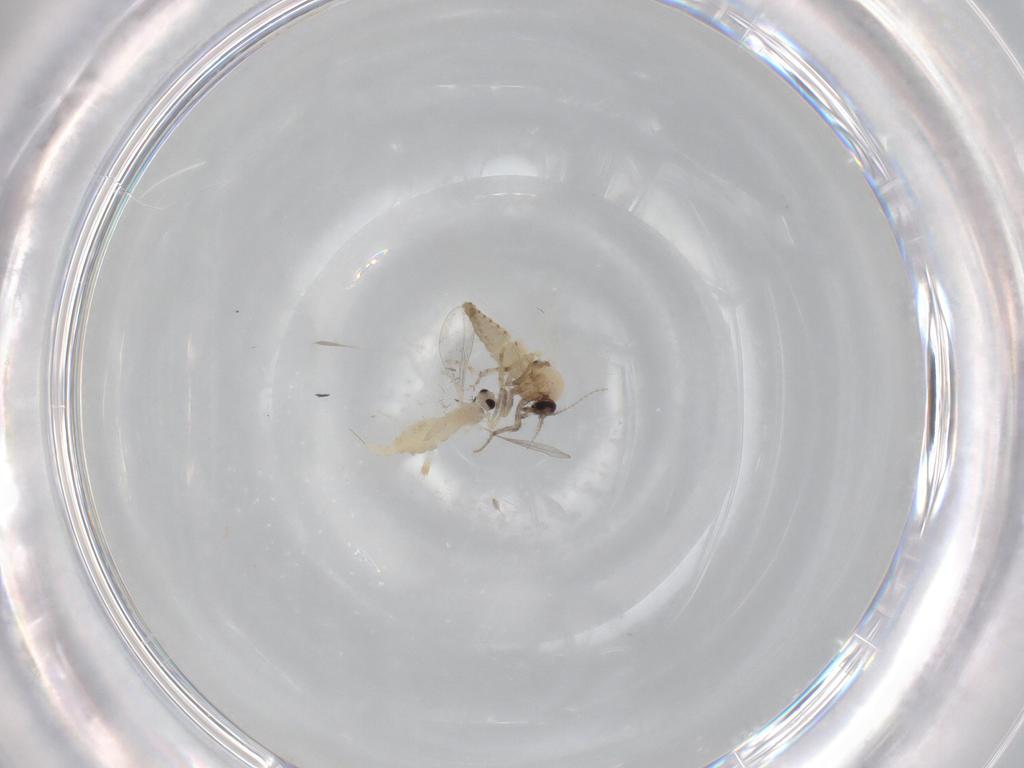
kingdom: Animalia
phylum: Arthropoda
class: Insecta
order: Diptera
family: Cecidomyiidae
